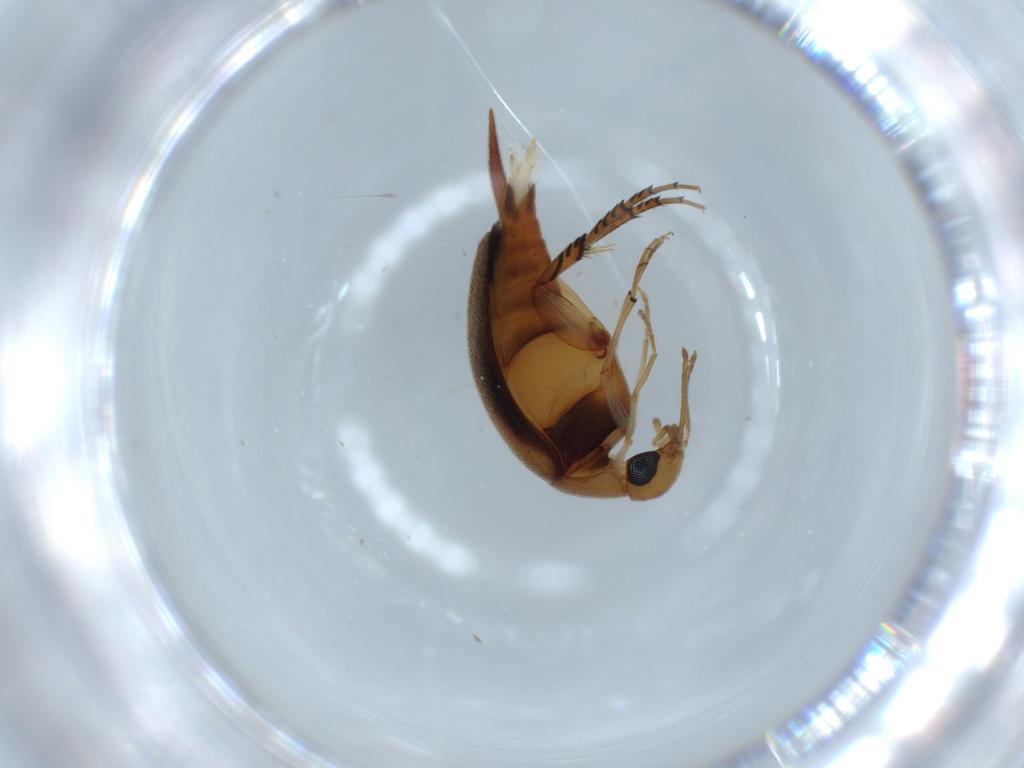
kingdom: Animalia
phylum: Arthropoda
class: Insecta
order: Coleoptera
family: Mordellidae
